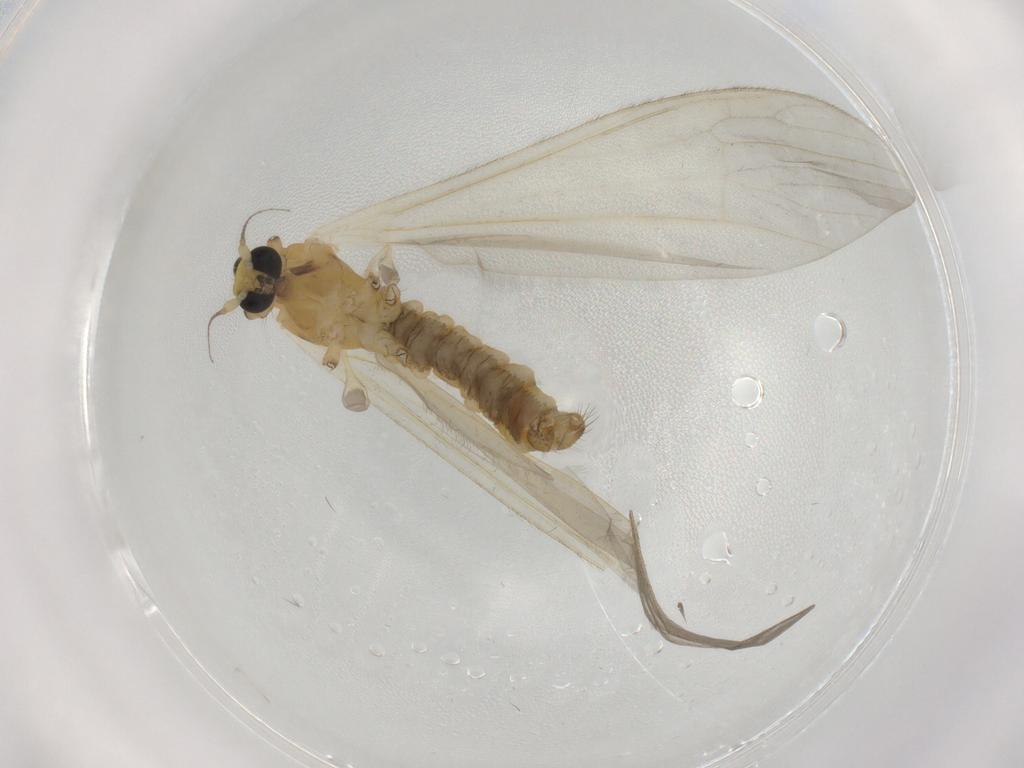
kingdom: Animalia
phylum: Arthropoda
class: Insecta
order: Diptera
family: Limoniidae
